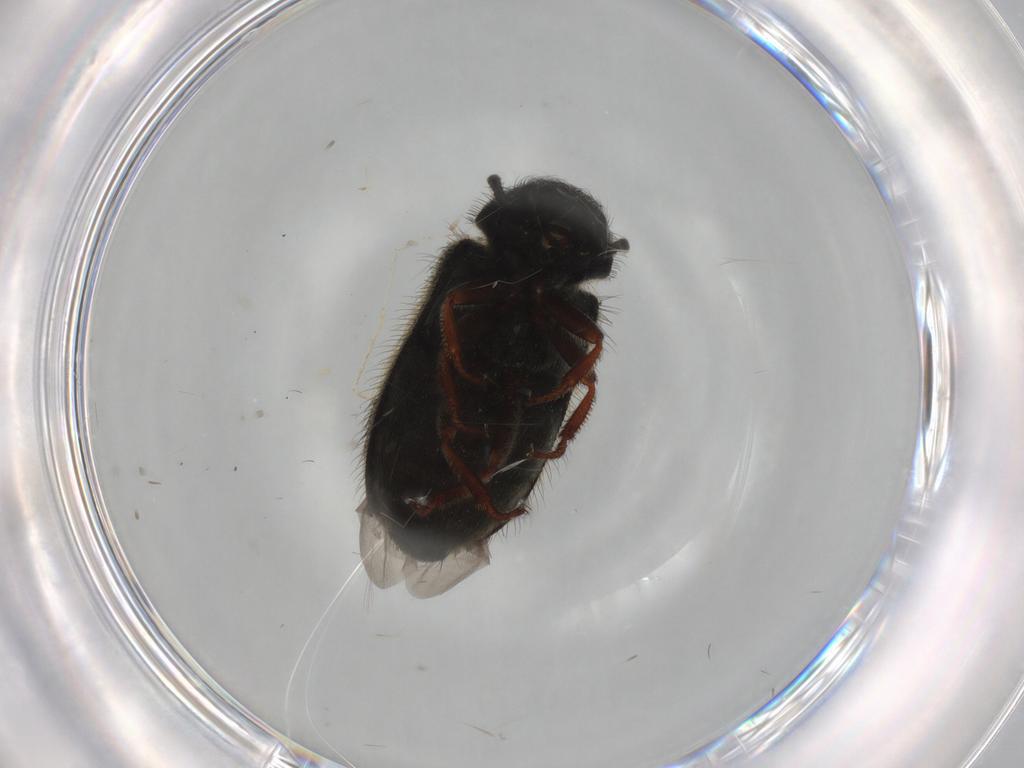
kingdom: Animalia
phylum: Arthropoda
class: Insecta
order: Coleoptera
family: Melyridae
